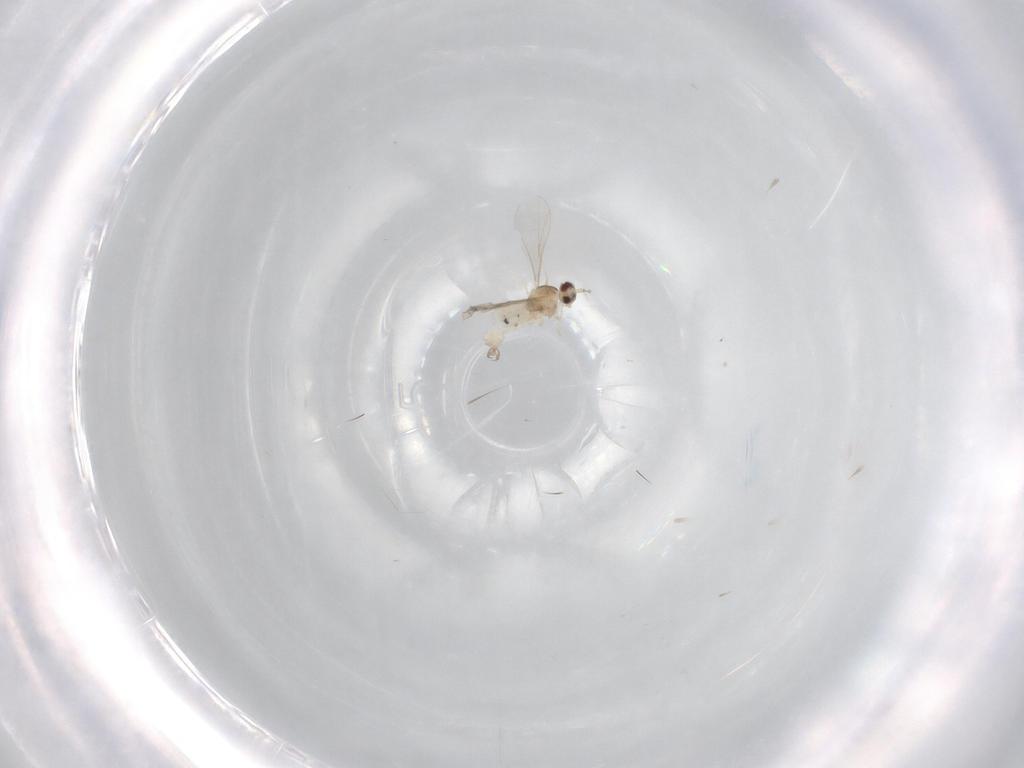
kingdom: Animalia
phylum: Arthropoda
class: Insecta
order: Diptera
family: Cecidomyiidae
